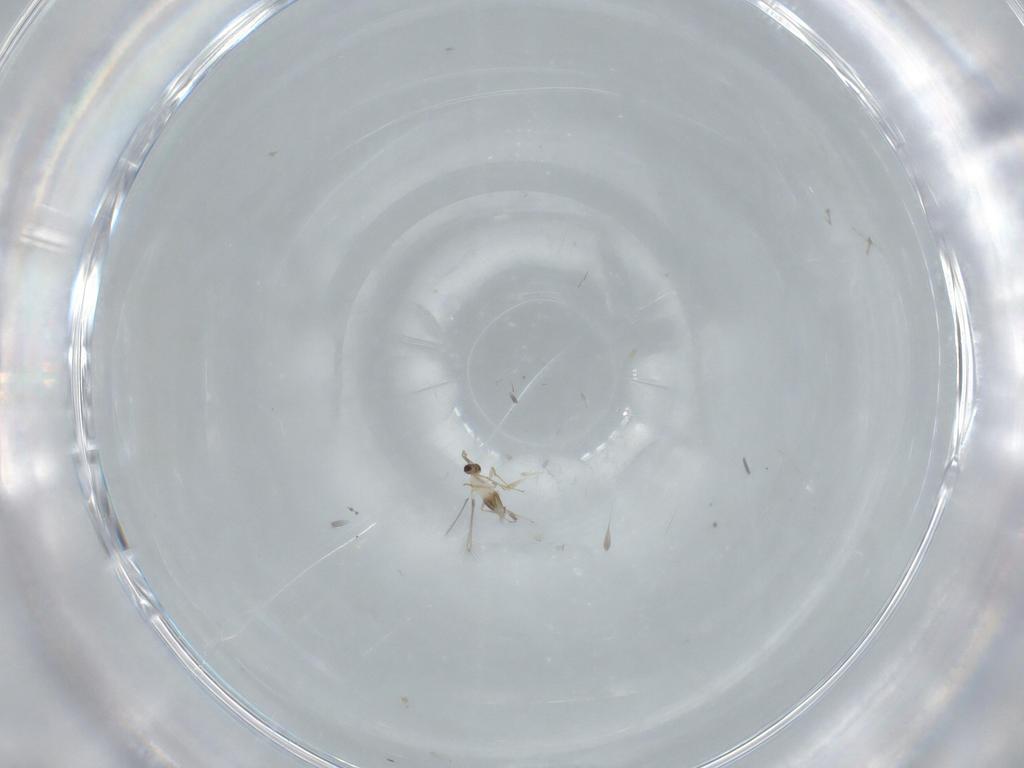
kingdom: Animalia
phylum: Arthropoda
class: Insecta
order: Hymenoptera
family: Mymaridae
